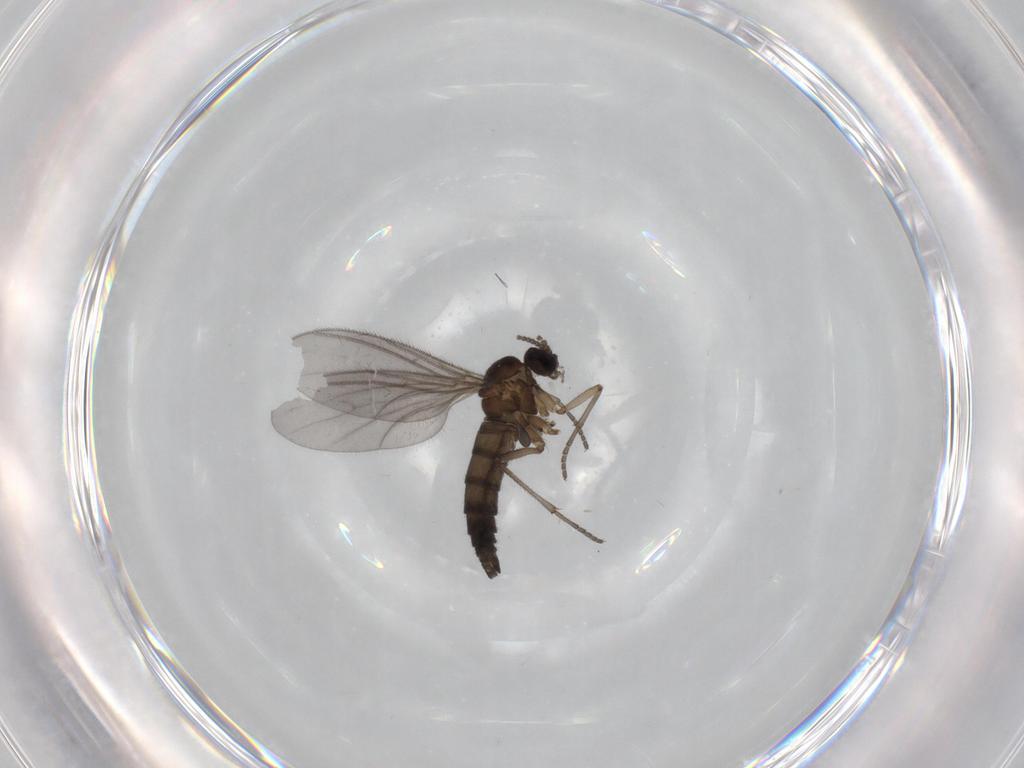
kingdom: Animalia
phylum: Arthropoda
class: Insecta
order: Diptera
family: Sciaridae
